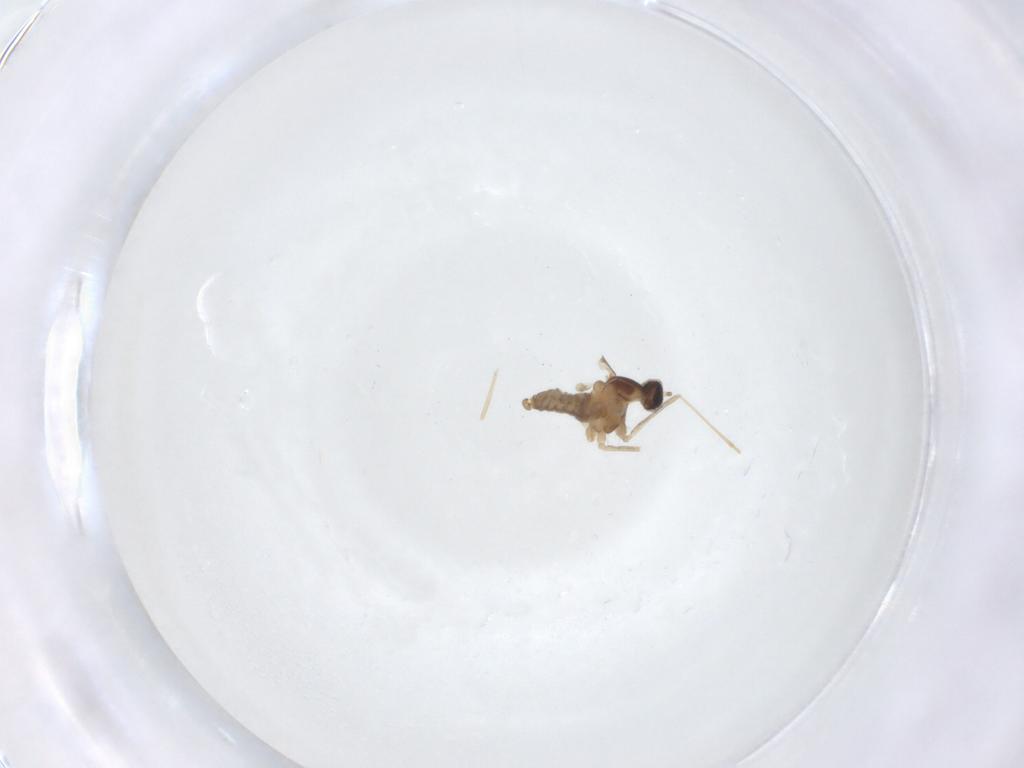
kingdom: Animalia
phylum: Arthropoda
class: Insecta
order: Diptera
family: Cecidomyiidae
